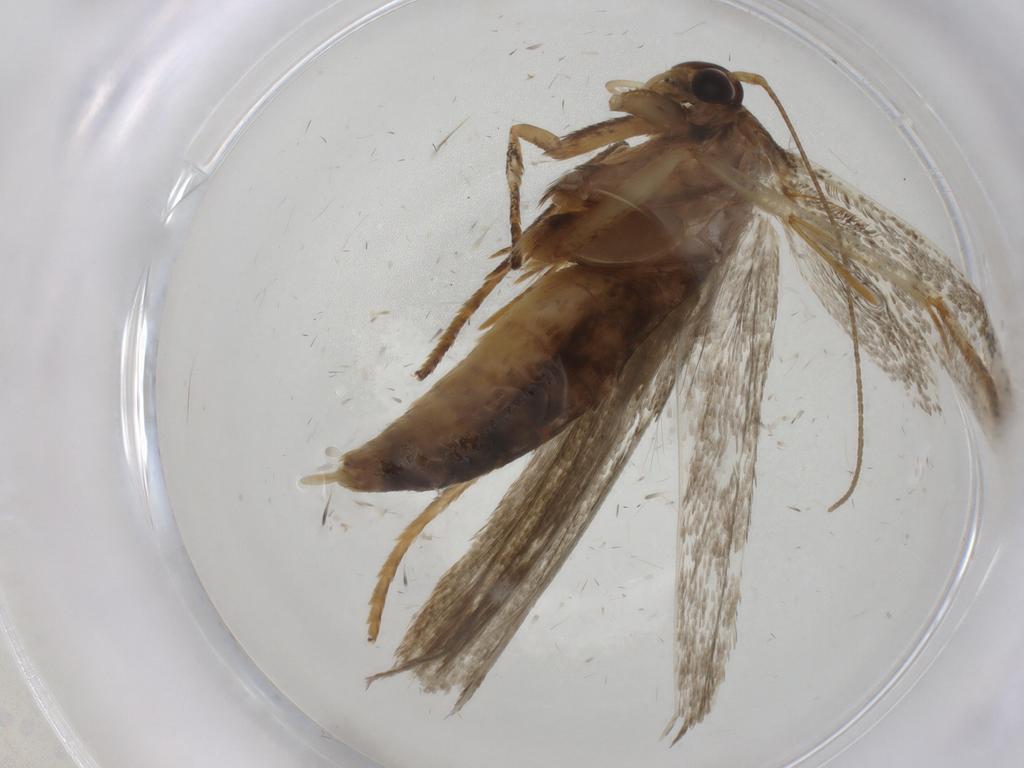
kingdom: Animalia
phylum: Arthropoda
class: Insecta
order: Lepidoptera
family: Blastobasidae
